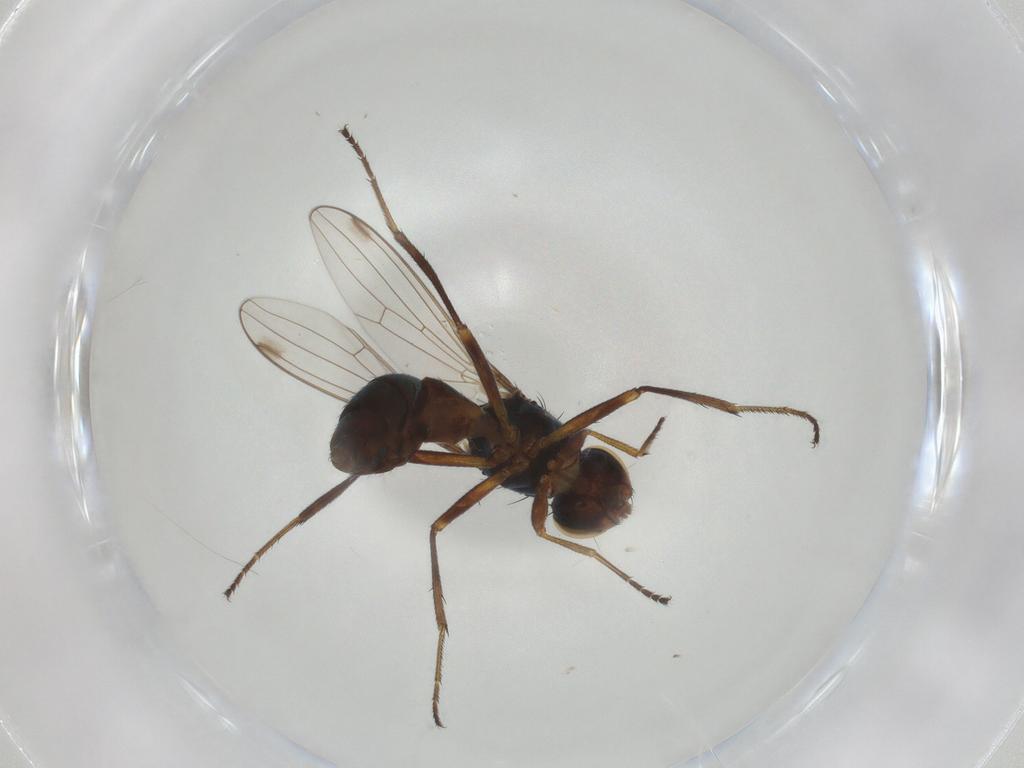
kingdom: Animalia
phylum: Arthropoda
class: Insecta
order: Diptera
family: Sepsidae
